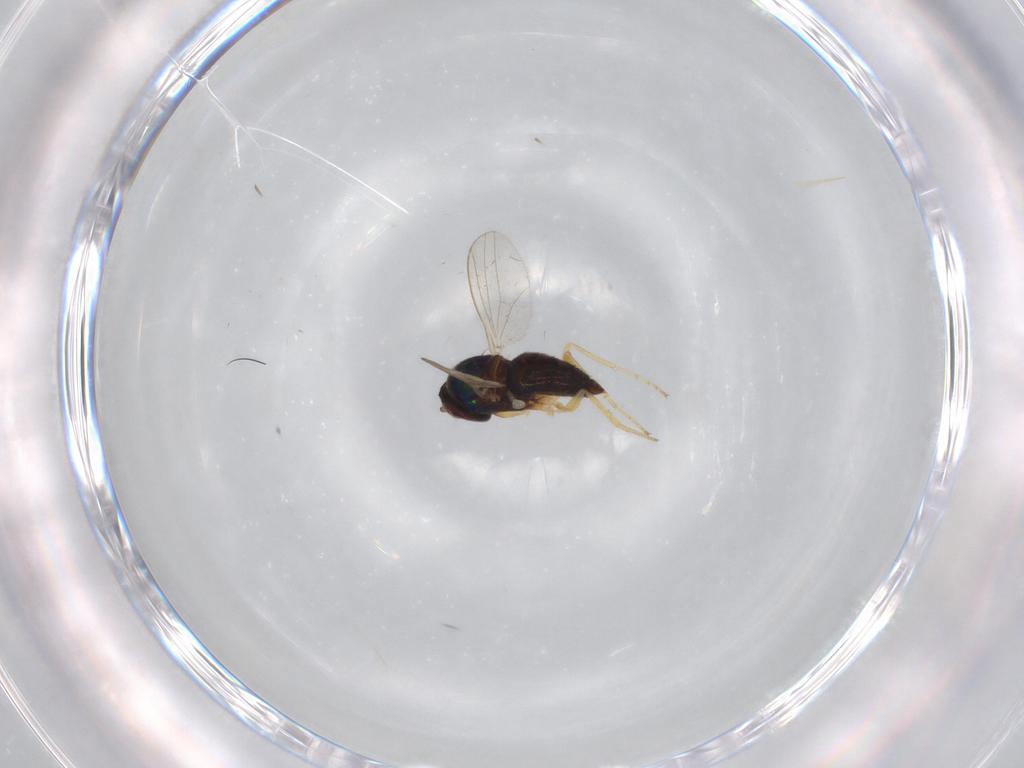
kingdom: Animalia
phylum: Arthropoda
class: Insecta
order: Diptera
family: Dolichopodidae
